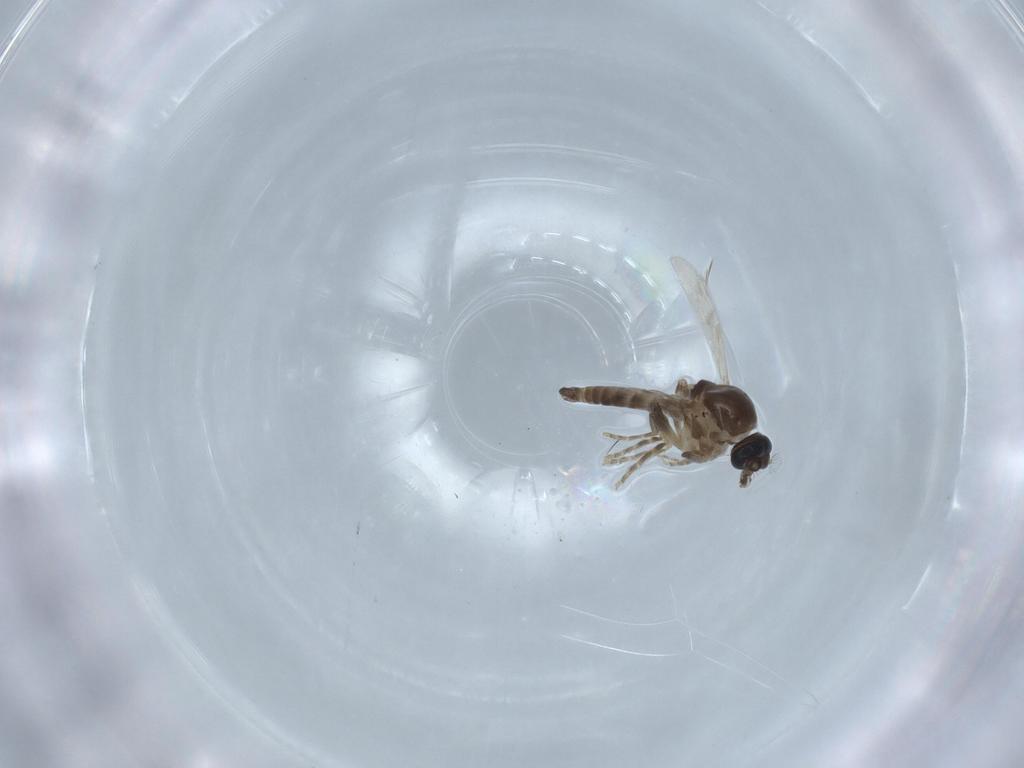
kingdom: Animalia
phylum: Arthropoda
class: Insecta
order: Diptera
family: Ceratopogonidae
